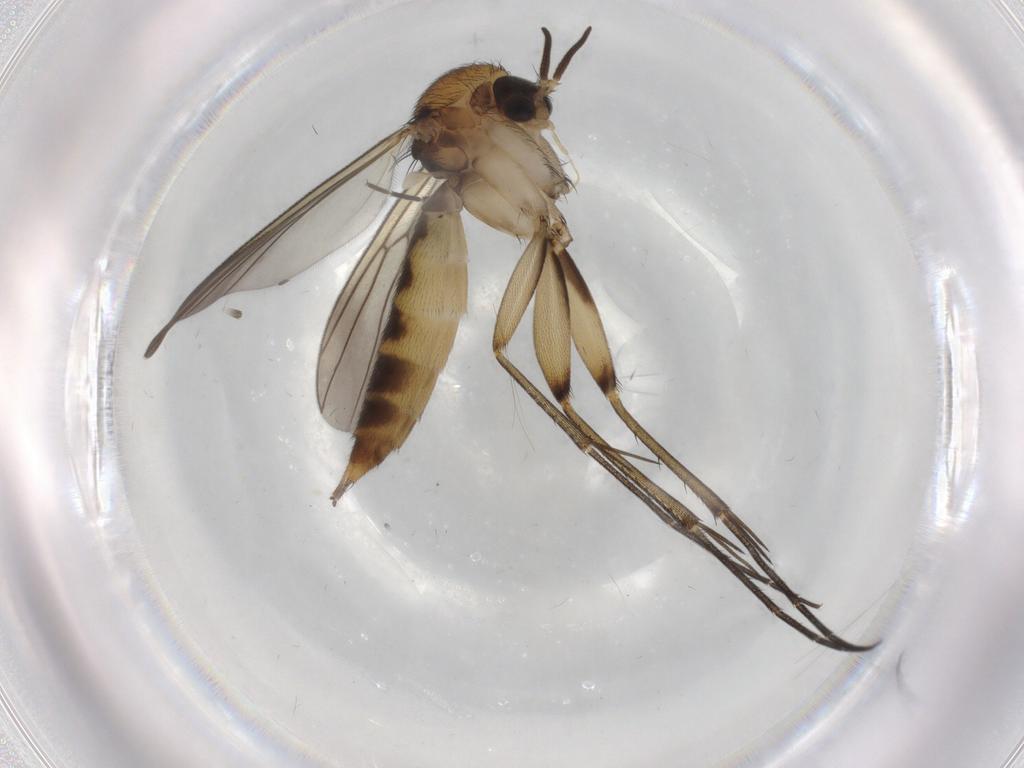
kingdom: Animalia
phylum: Arthropoda
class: Insecta
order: Diptera
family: Mycetophilidae
